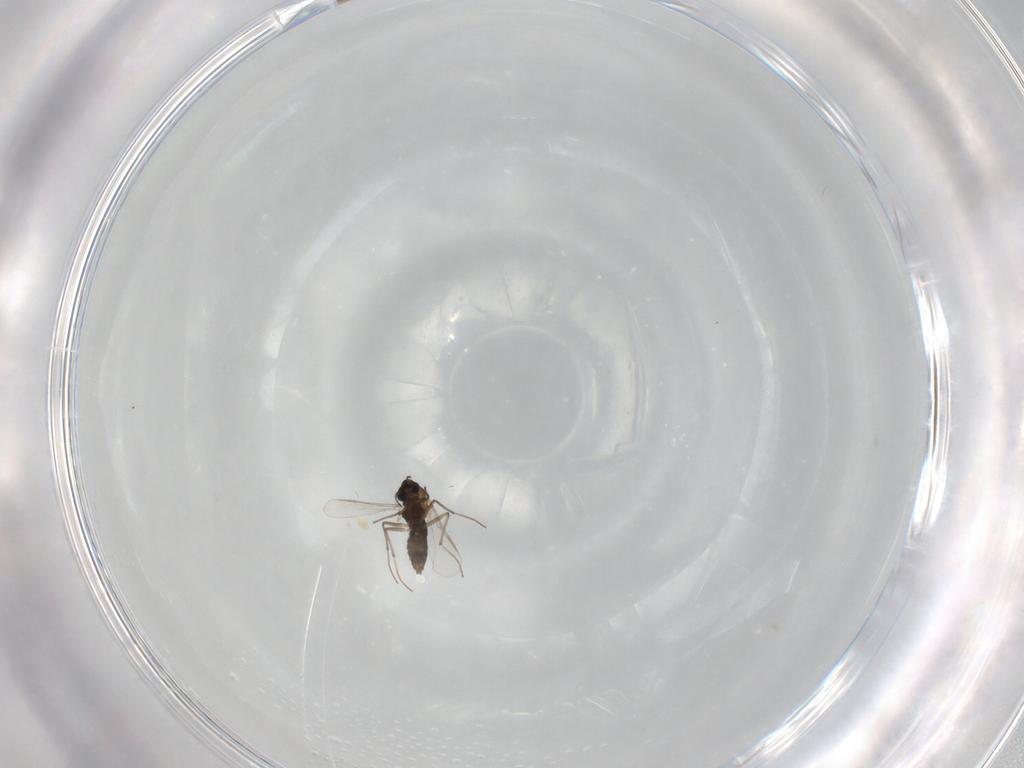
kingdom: Animalia
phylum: Arthropoda
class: Insecta
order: Diptera
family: Chironomidae
